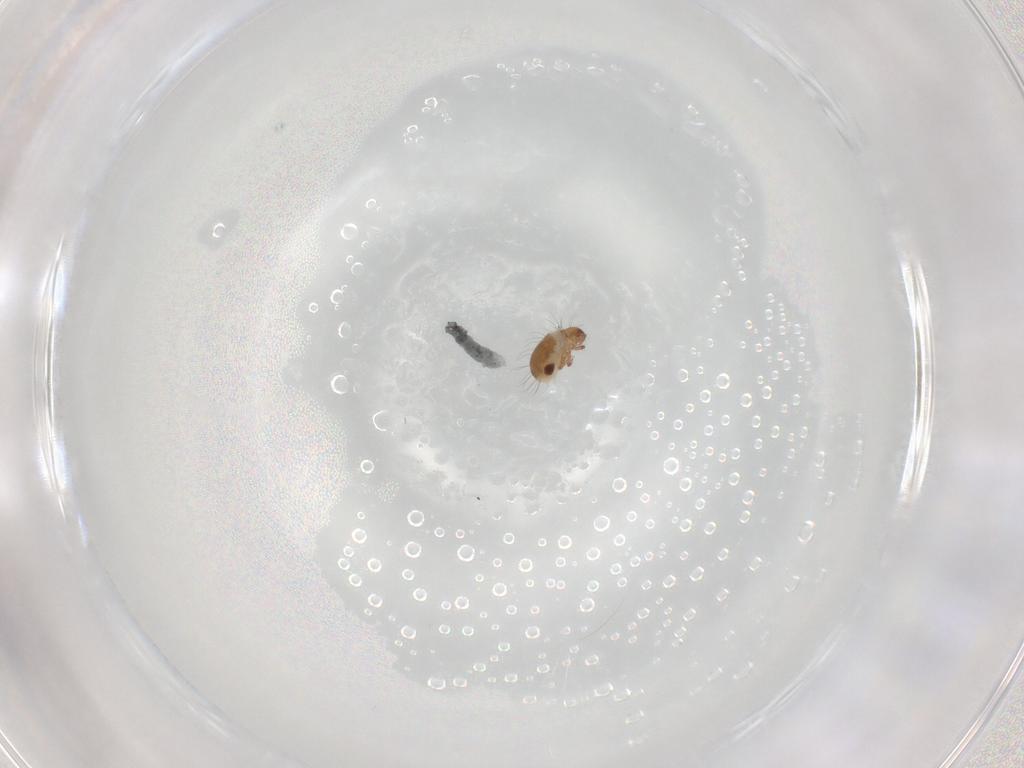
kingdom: Animalia
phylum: Arthropoda
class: Arachnida
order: Sarcoptiformes
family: Humerobatidae
